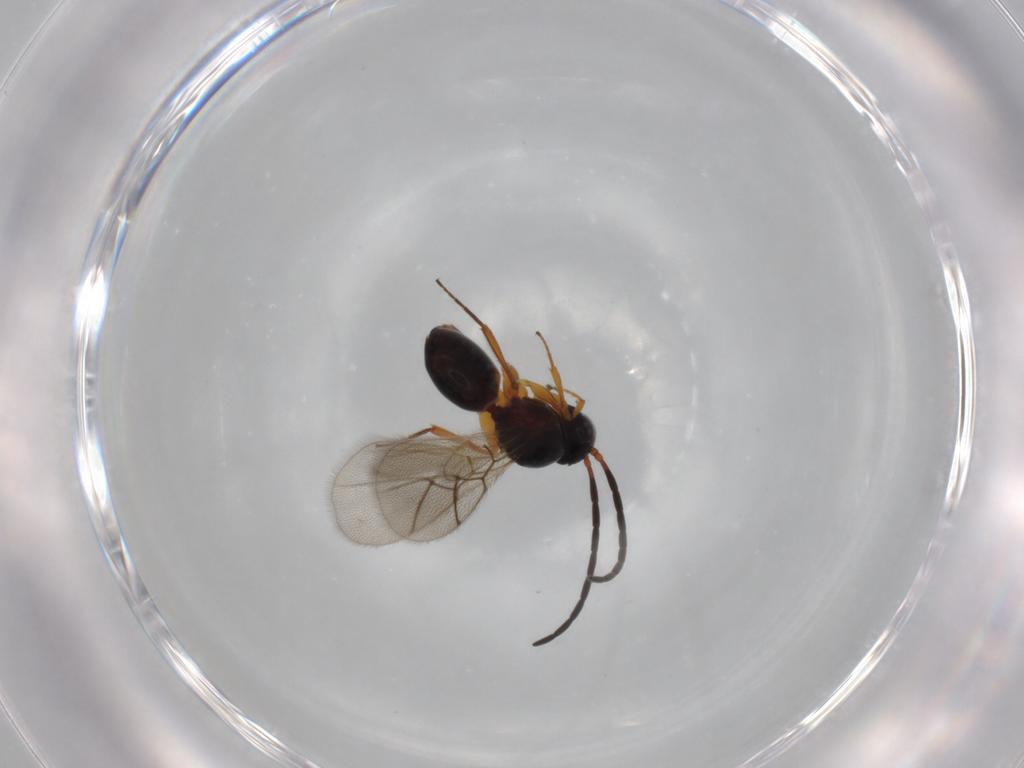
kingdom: Animalia
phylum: Arthropoda
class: Insecta
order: Hymenoptera
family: Figitidae
